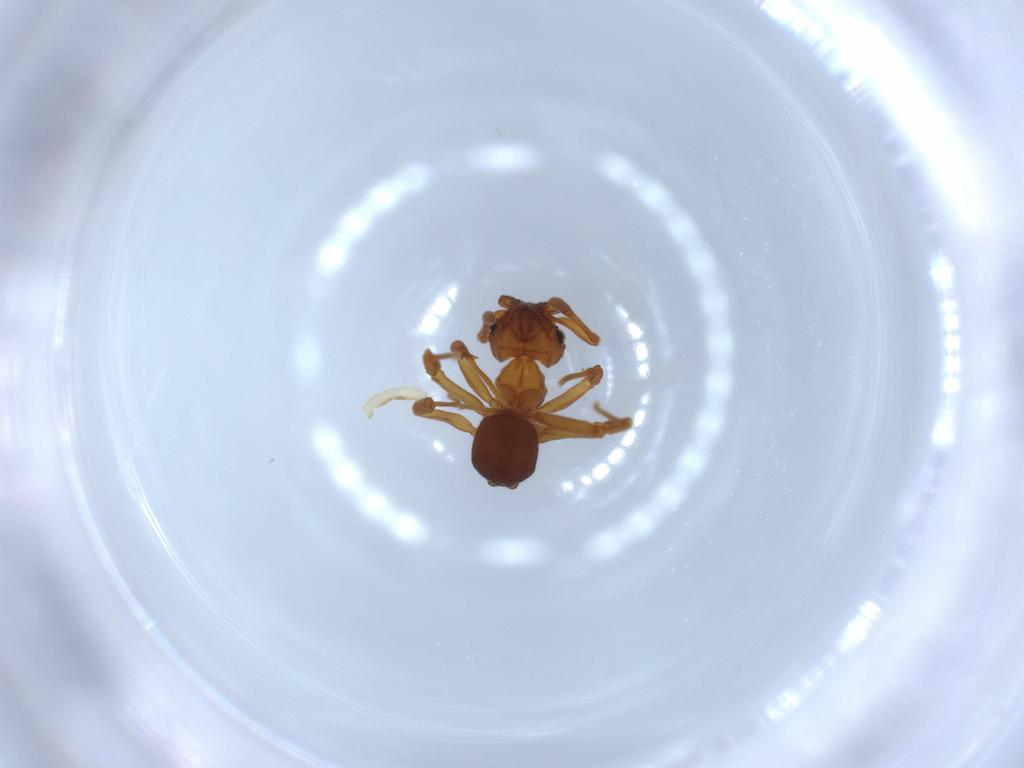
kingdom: Animalia
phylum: Arthropoda
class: Insecta
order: Hymenoptera
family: Formicidae
